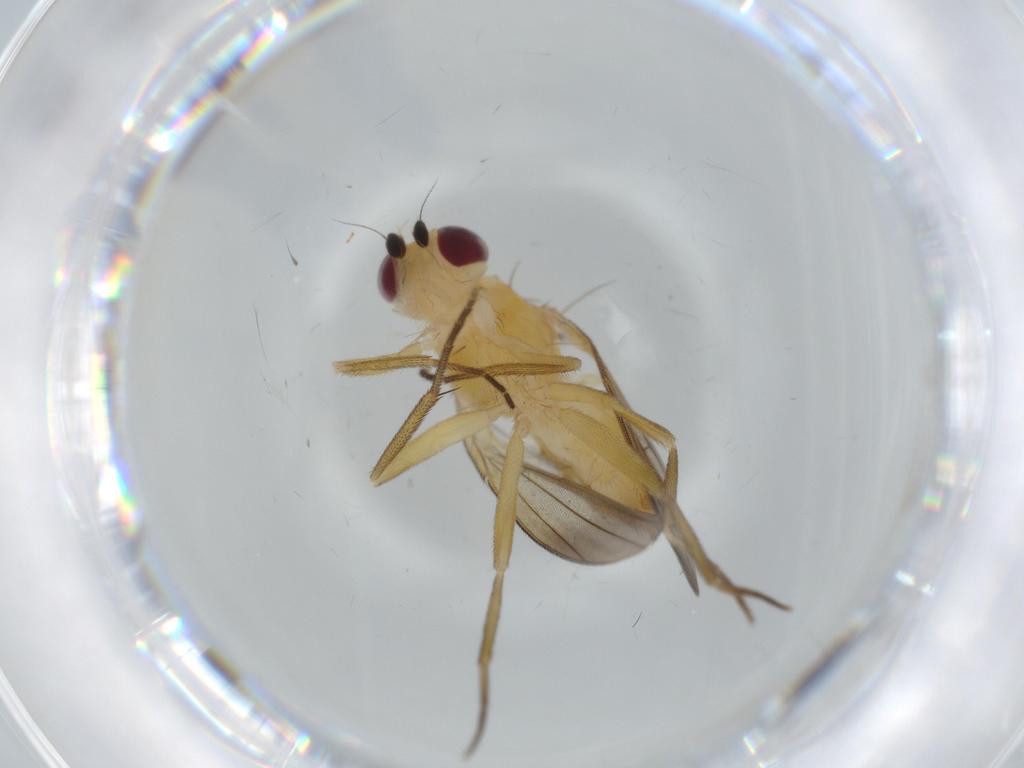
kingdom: Animalia
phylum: Arthropoda
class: Insecta
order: Diptera
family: Clusiidae
